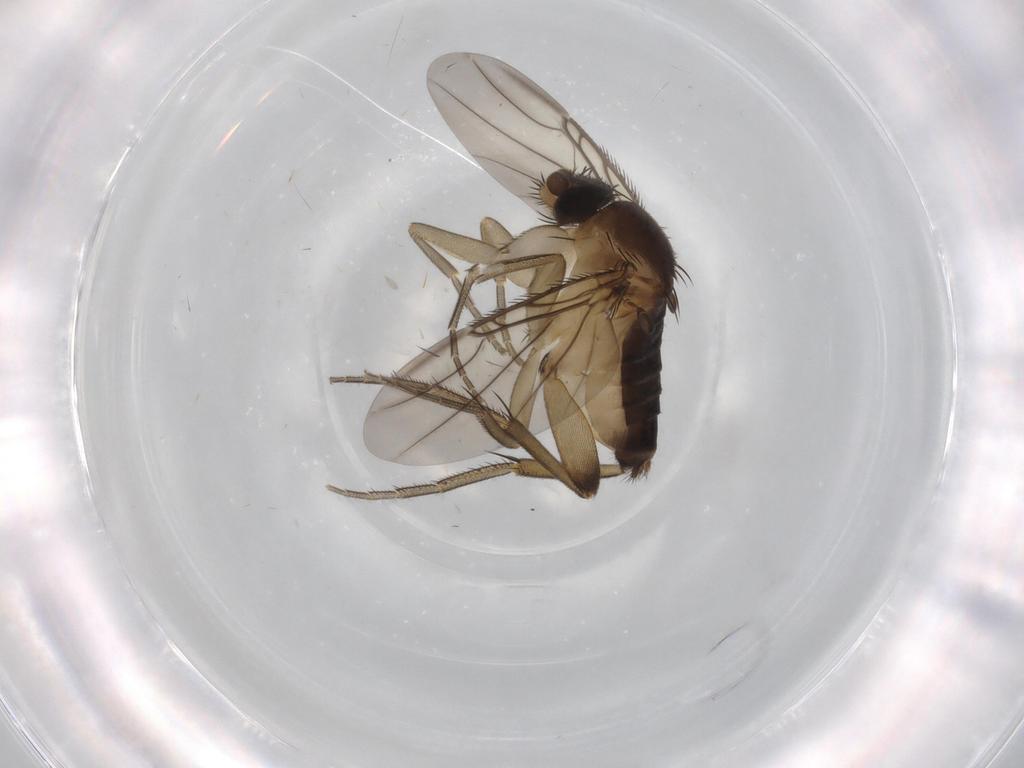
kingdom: Animalia
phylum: Arthropoda
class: Insecta
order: Diptera
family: Phoridae
